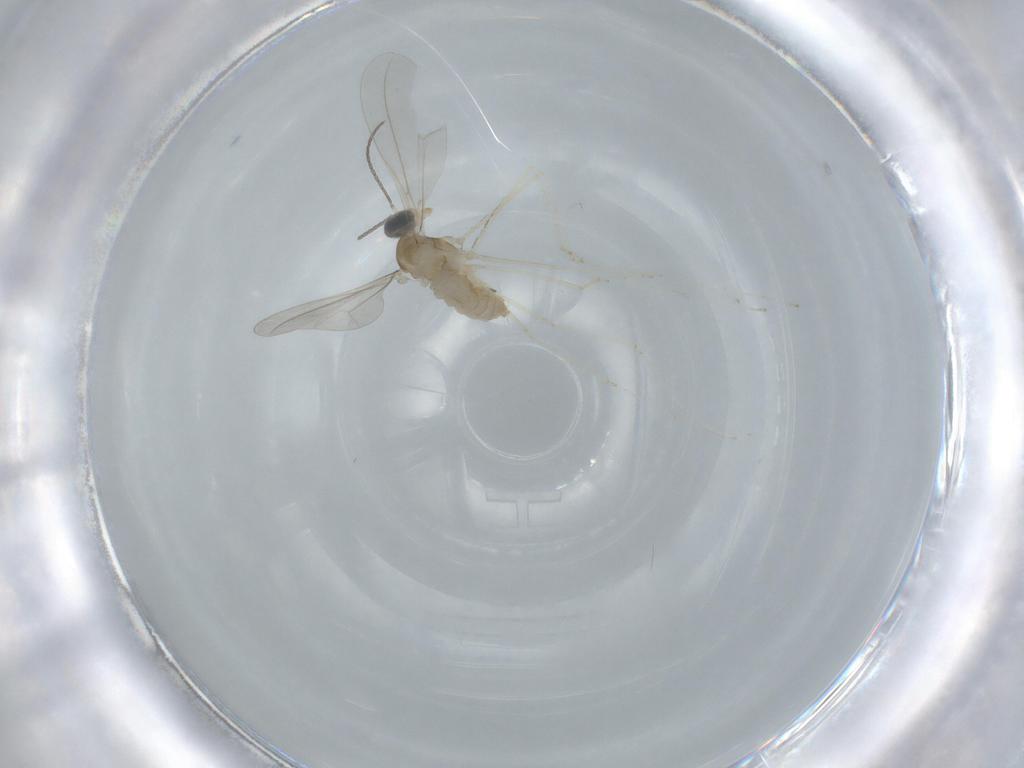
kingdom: Animalia
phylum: Arthropoda
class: Insecta
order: Diptera
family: Cecidomyiidae
